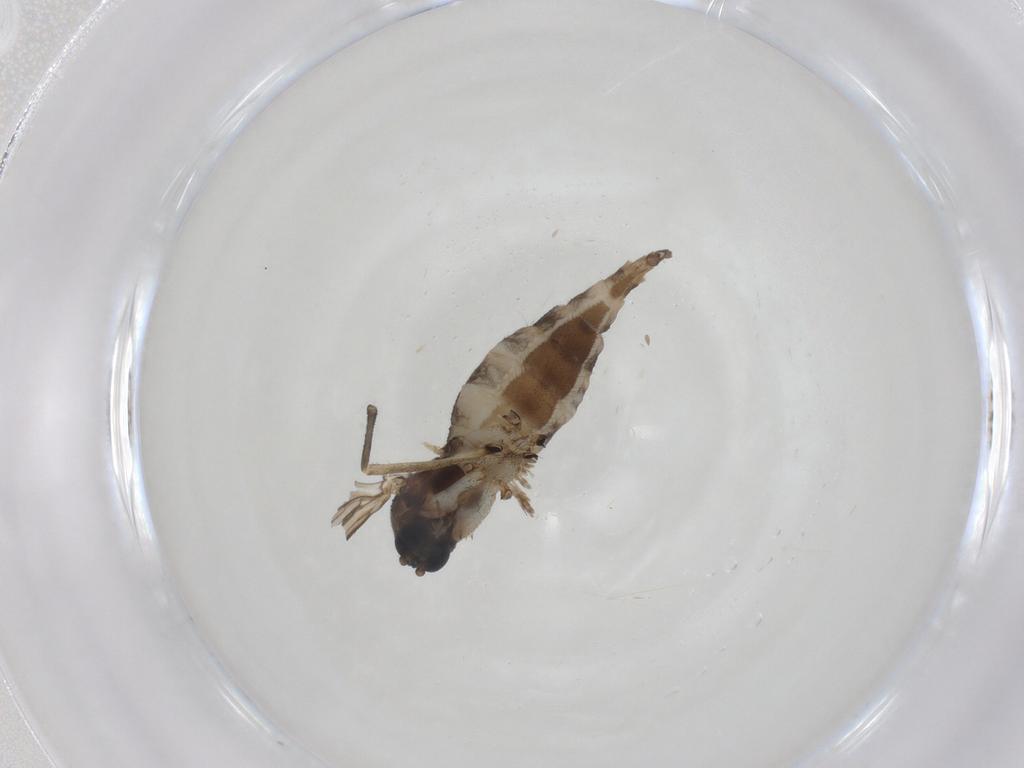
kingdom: Animalia
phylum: Arthropoda
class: Insecta
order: Diptera
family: Sciaridae
